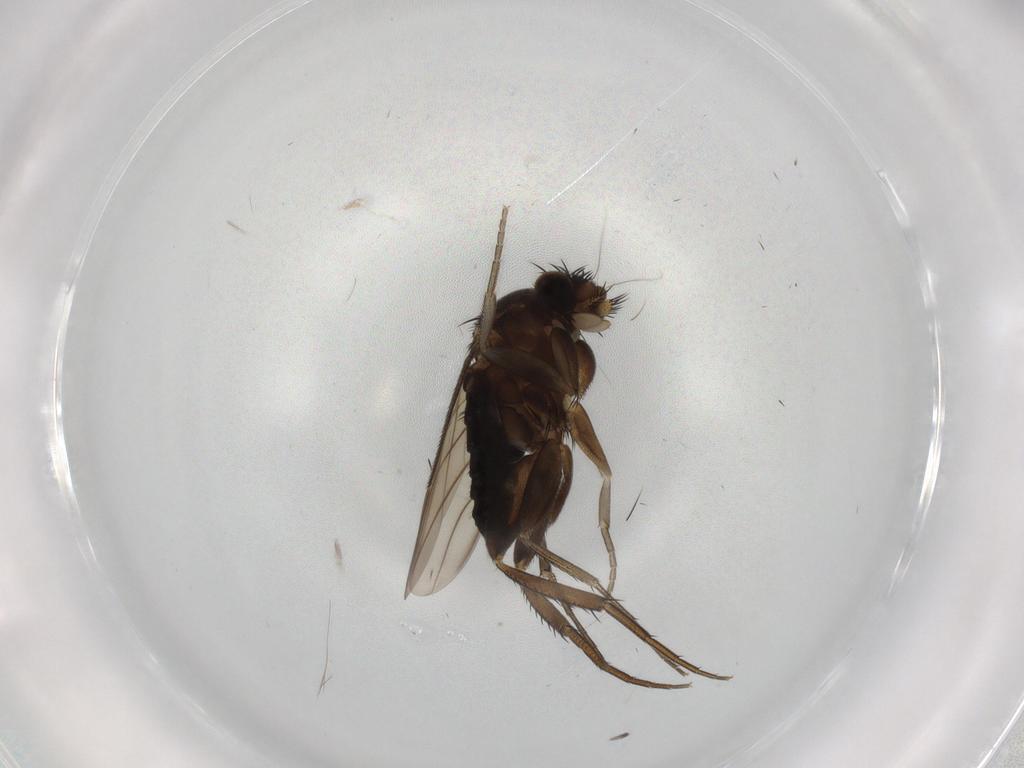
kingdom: Animalia
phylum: Arthropoda
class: Insecta
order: Diptera
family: Phoridae
